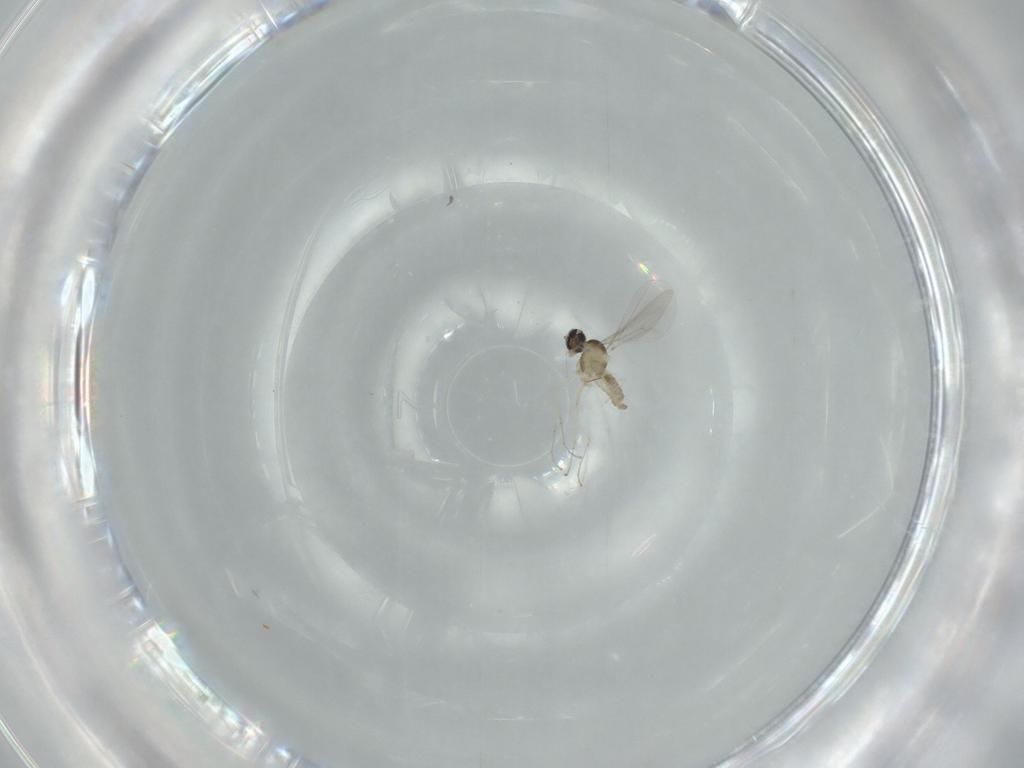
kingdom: Animalia
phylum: Arthropoda
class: Insecta
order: Diptera
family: Cecidomyiidae
